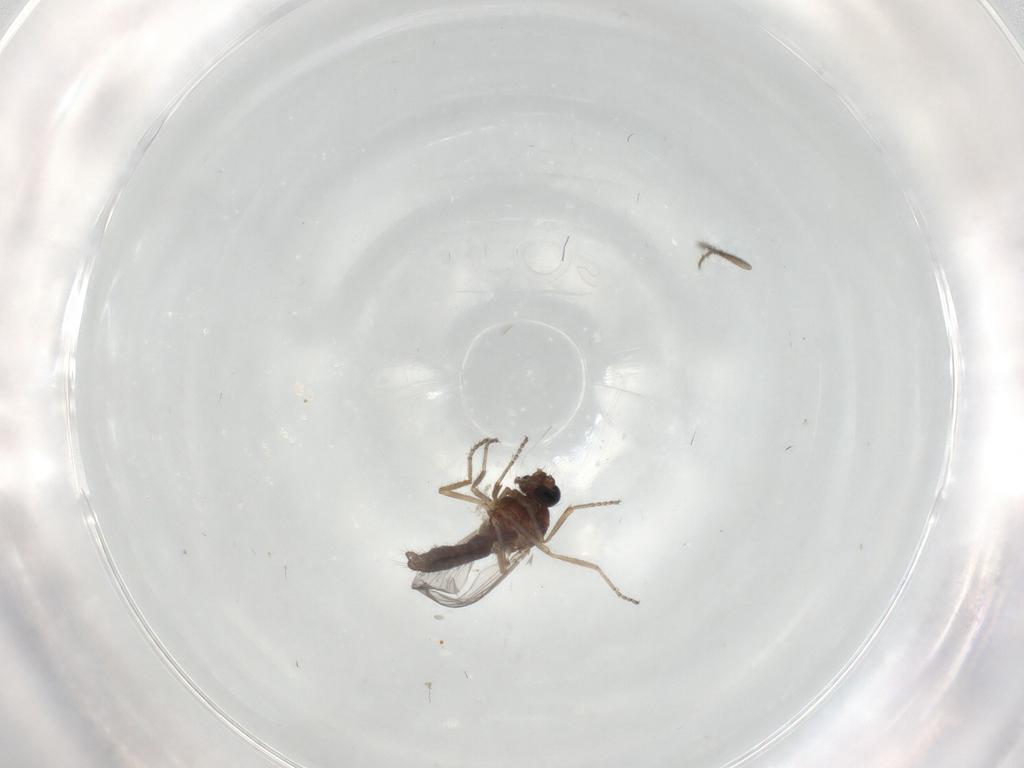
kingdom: Animalia
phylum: Arthropoda
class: Insecta
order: Diptera
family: Ceratopogonidae
